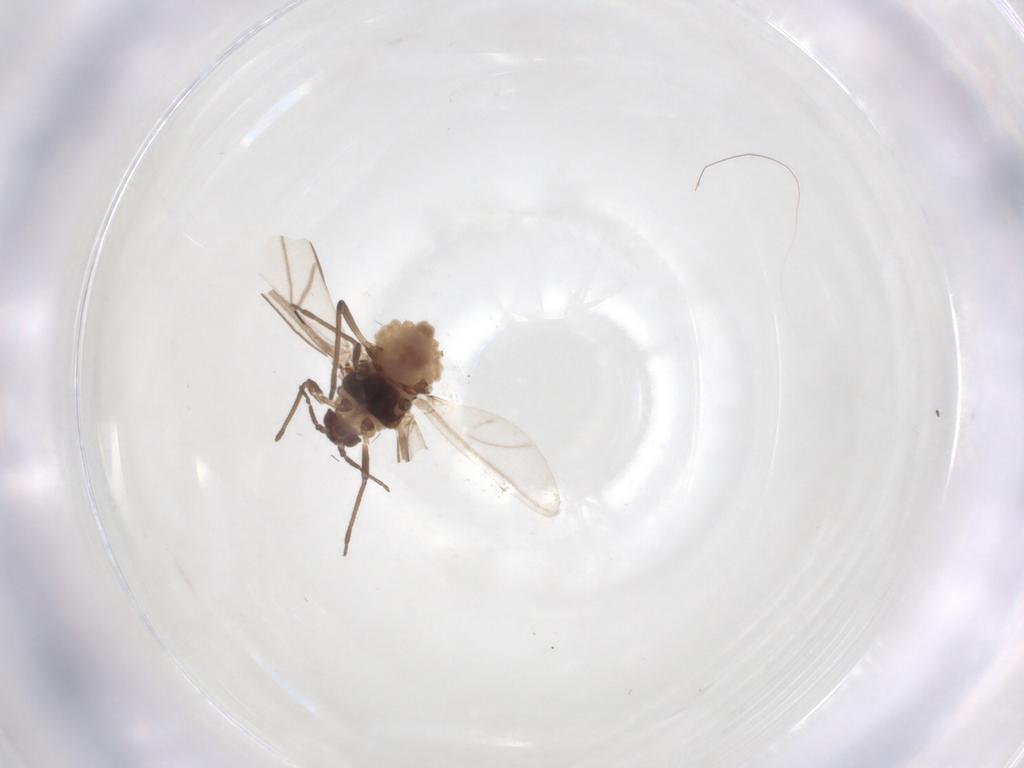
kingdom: Animalia
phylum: Arthropoda
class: Insecta
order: Hemiptera
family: Aphididae
